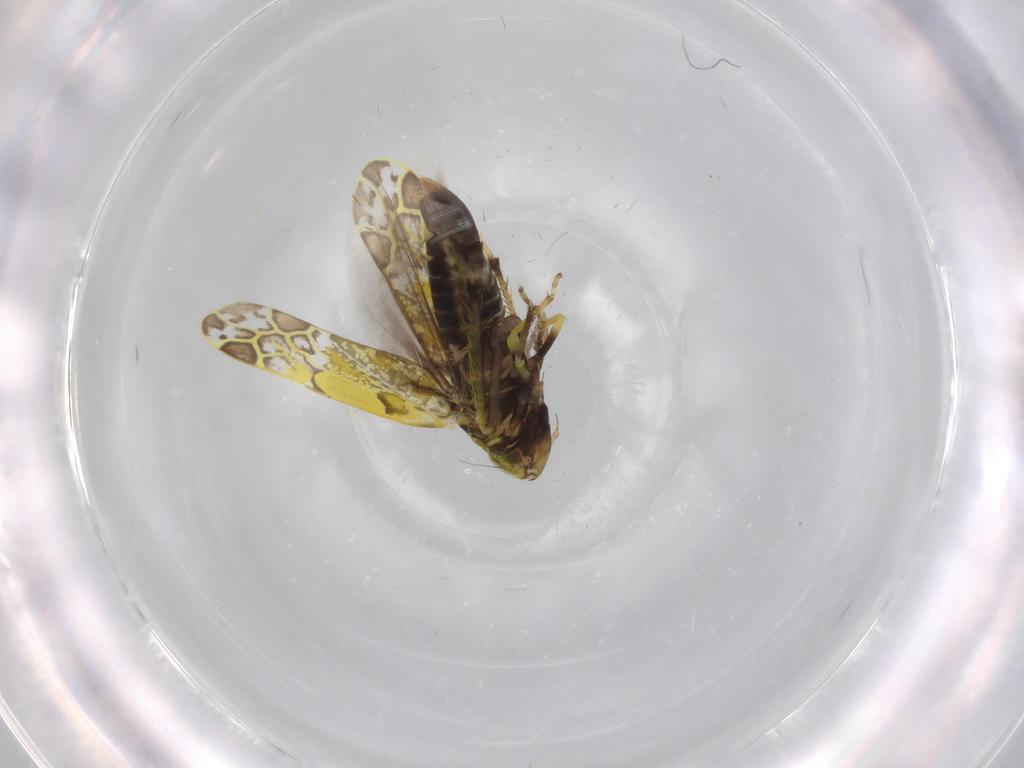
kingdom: Animalia
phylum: Arthropoda
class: Insecta
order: Hemiptera
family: Cicadellidae
